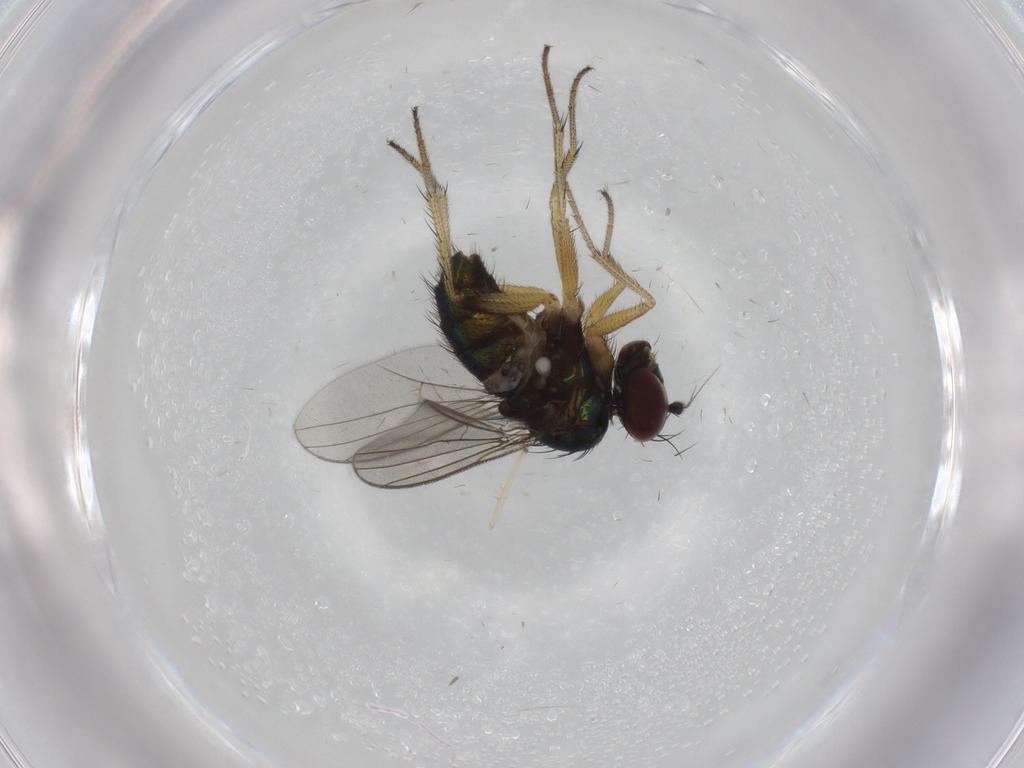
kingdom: Animalia
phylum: Arthropoda
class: Insecta
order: Diptera
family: Dolichopodidae
